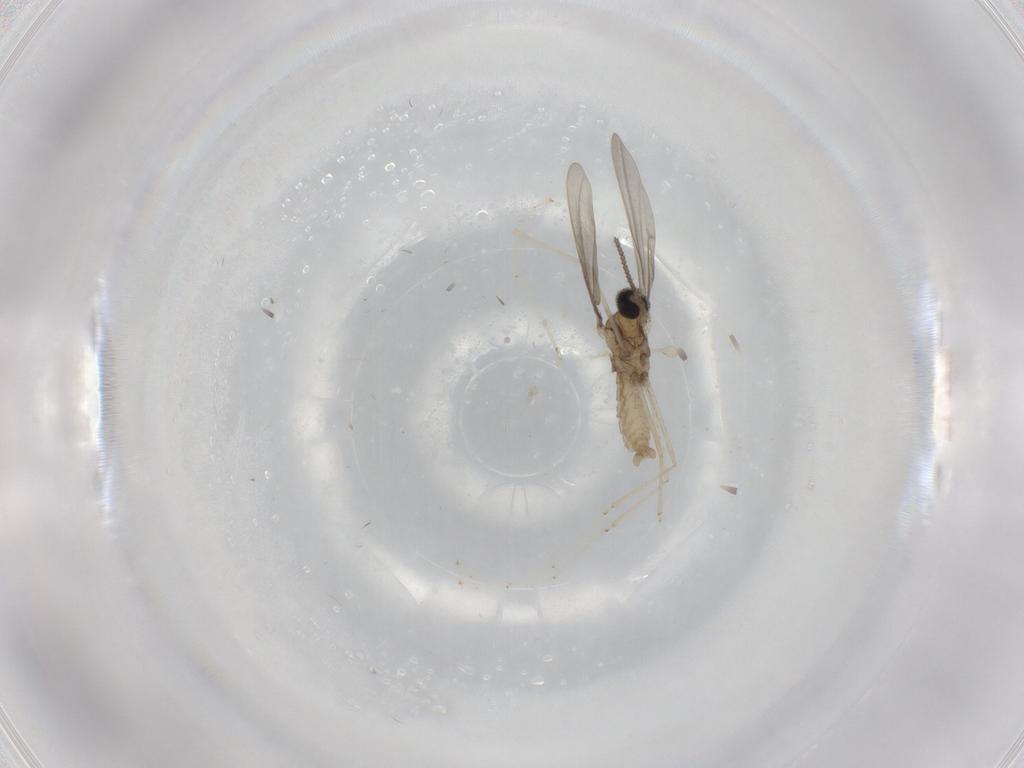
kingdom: Animalia
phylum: Arthropoda
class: Insecta
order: Diptera
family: Cecidomyiidae
